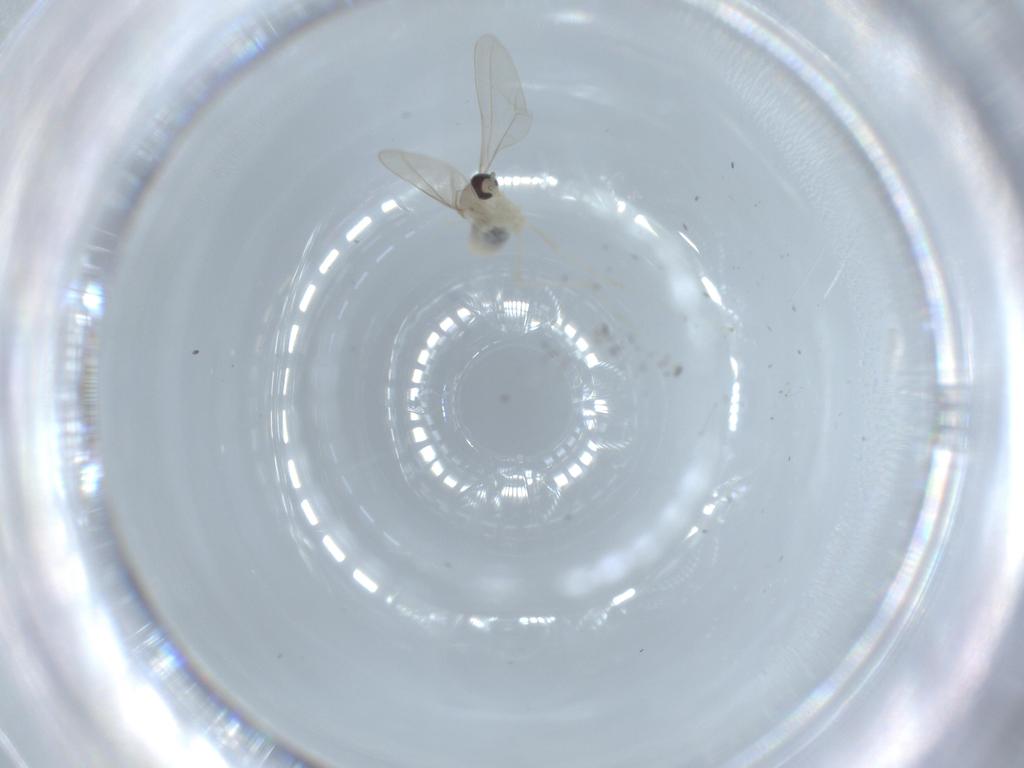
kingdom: Animalia
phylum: Arthropoda
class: Insecta
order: Diptera
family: Cecidomyiidae
